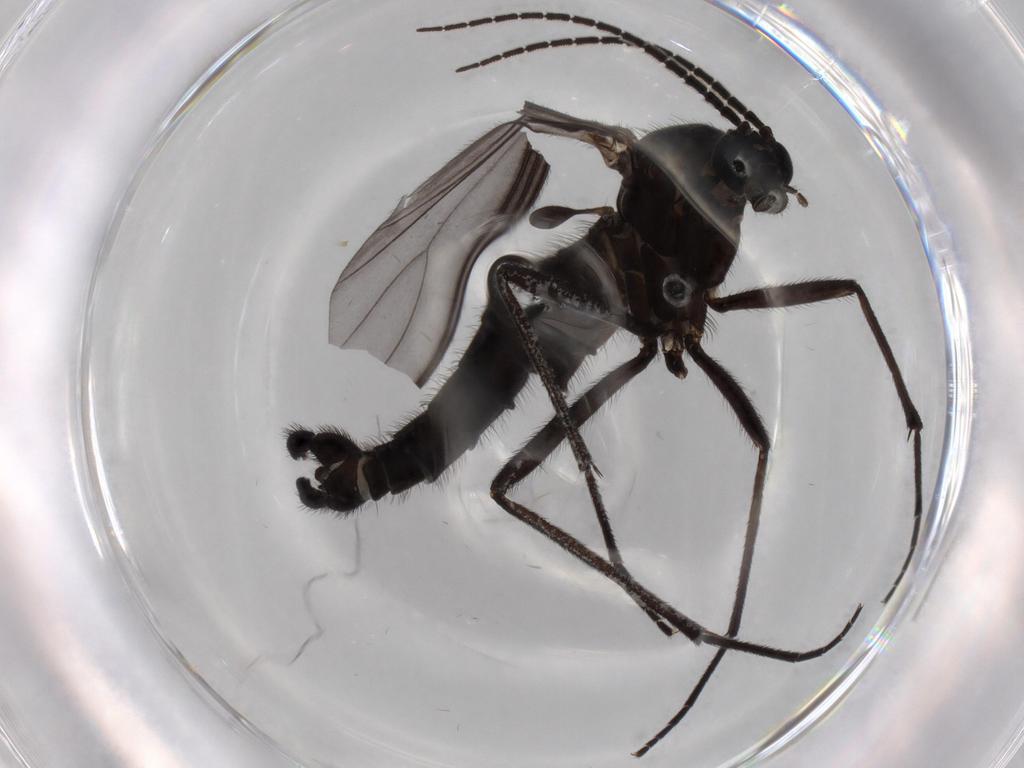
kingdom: Animalia
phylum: Arthropoda
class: Insecta
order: Diptera
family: Sciaridae
